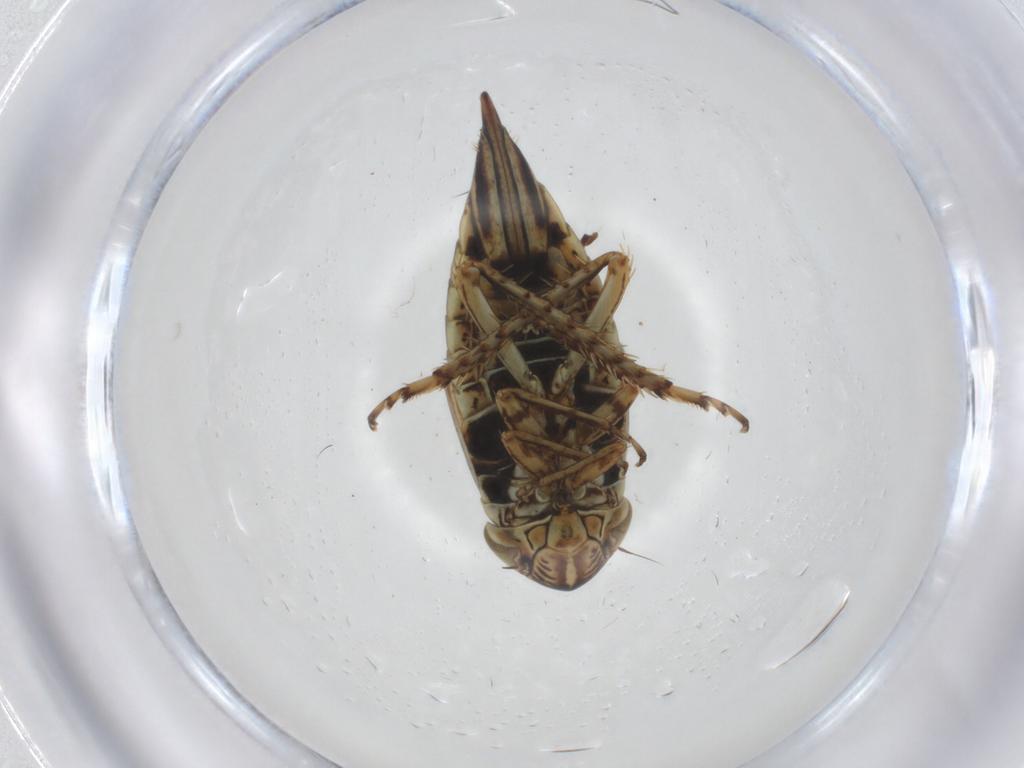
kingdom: Animalia
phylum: Arthropoda
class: Insecta
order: Hemiptera
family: Cicadellidae
